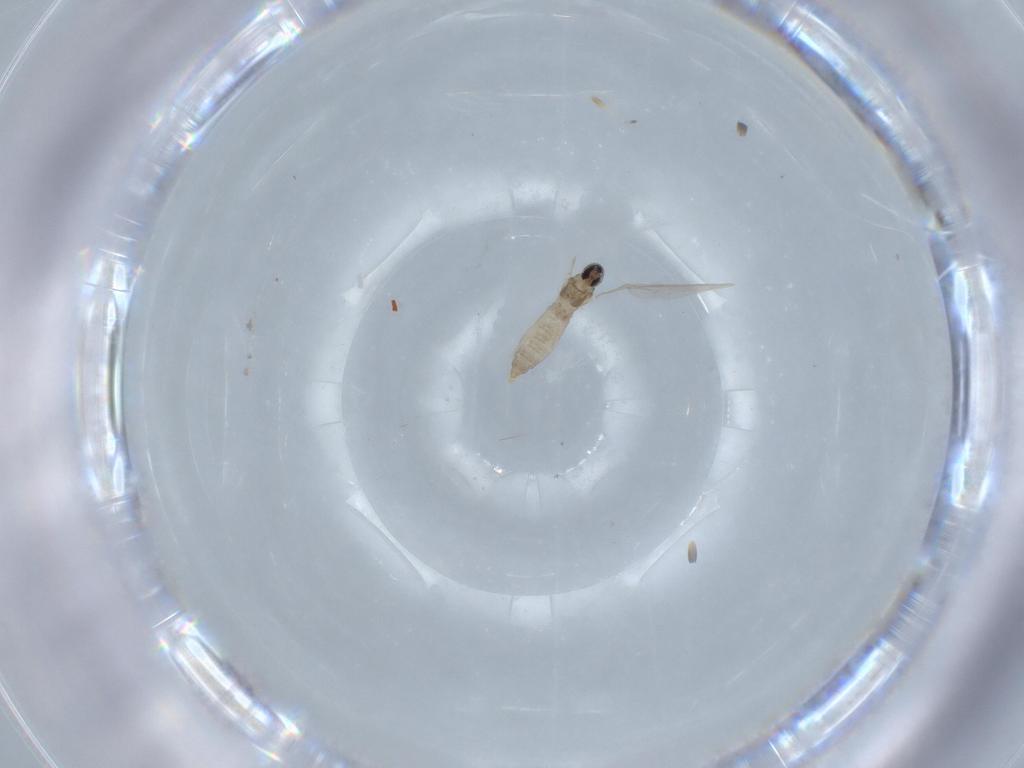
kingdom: Animalia
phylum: Arthropoda
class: Insecta
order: Diptera
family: Cecidomyiidae
